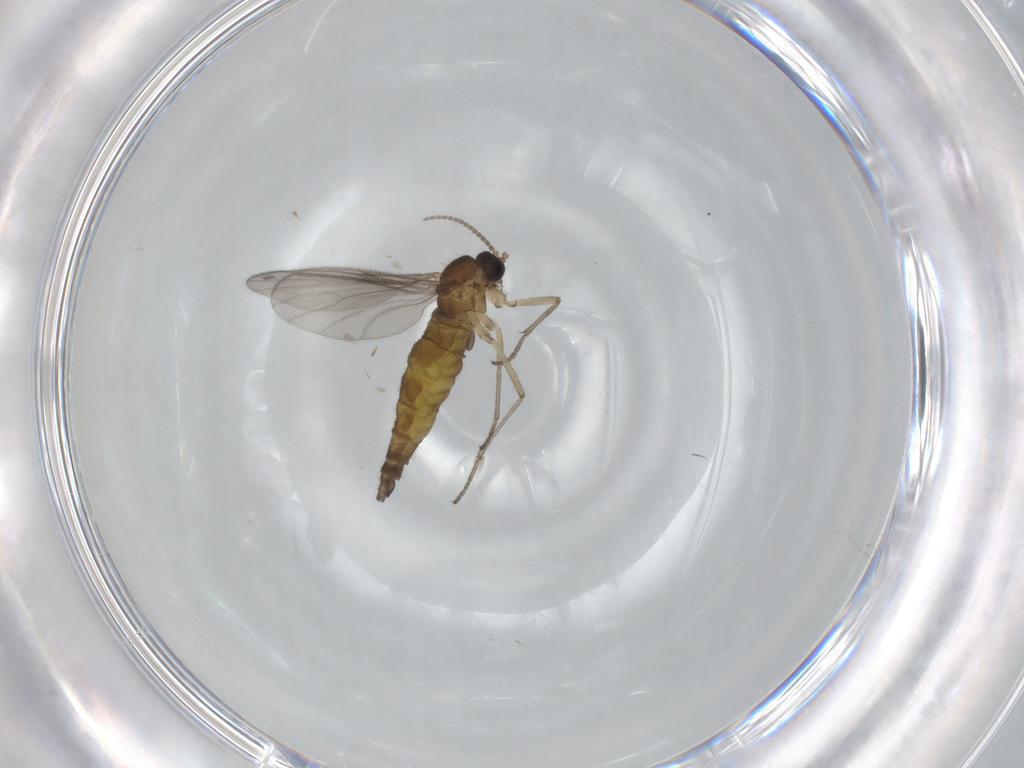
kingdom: Animalia
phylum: Arthropoda
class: Insecta
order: Diptera
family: Sciaridae
